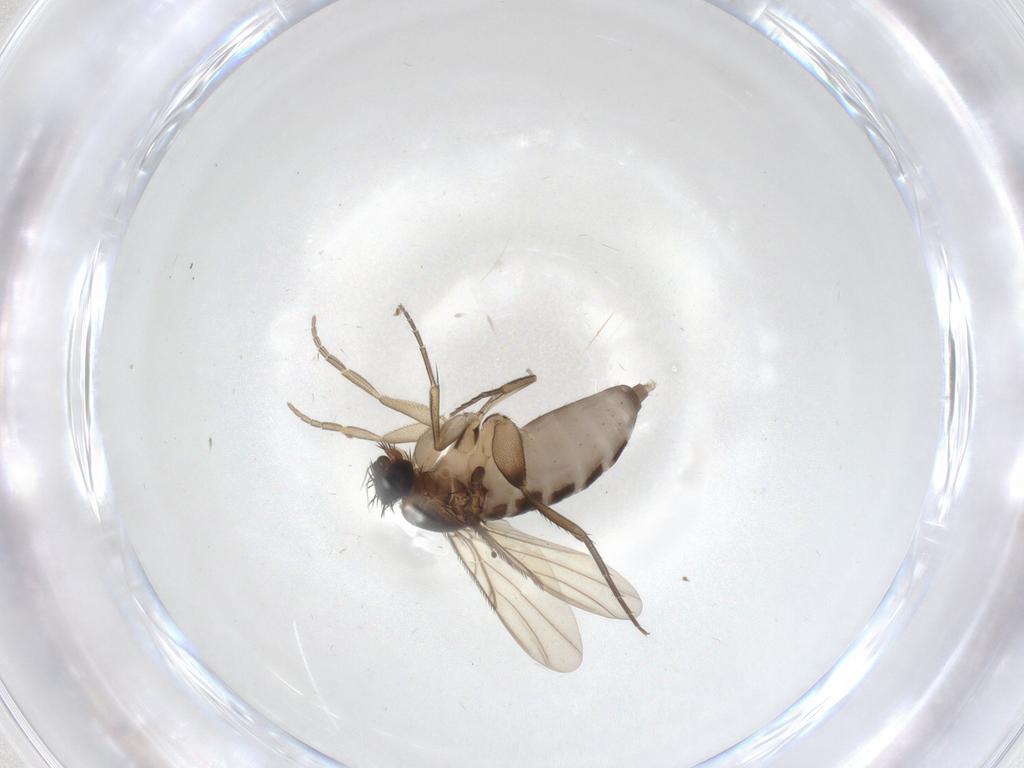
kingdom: Animalia
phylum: Arthropoda
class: Insecta
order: Diptera
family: Phoridae
